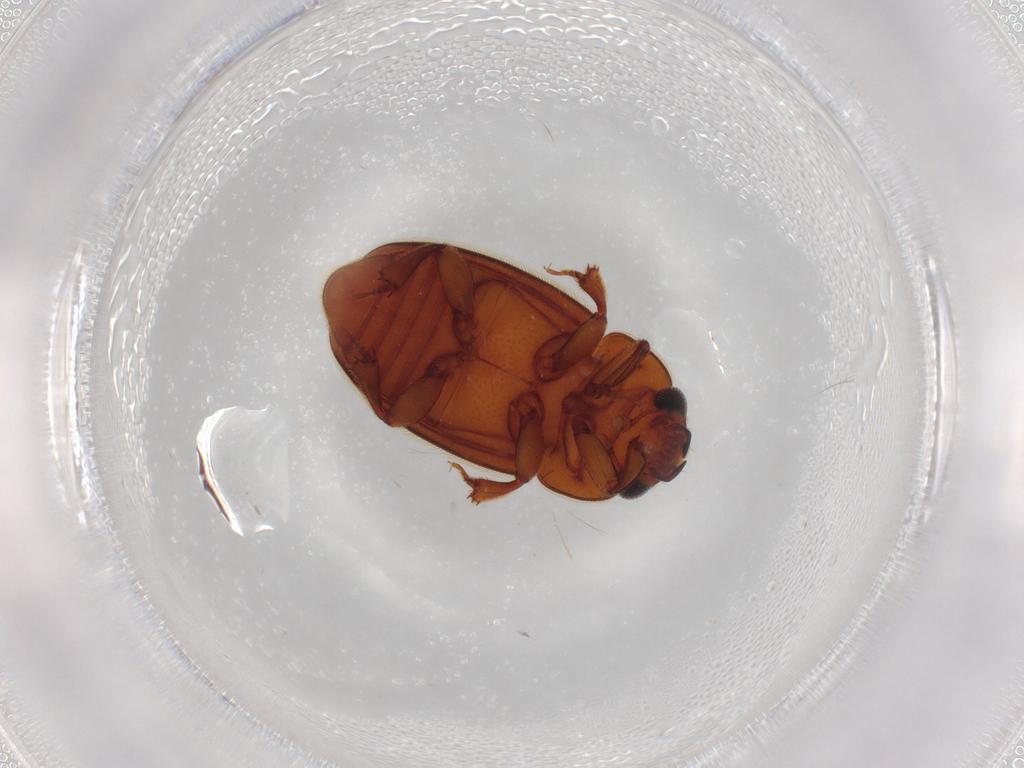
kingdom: Animalia
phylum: Arthropoda
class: Insecta
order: Coleoptera
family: Nitidulidae
